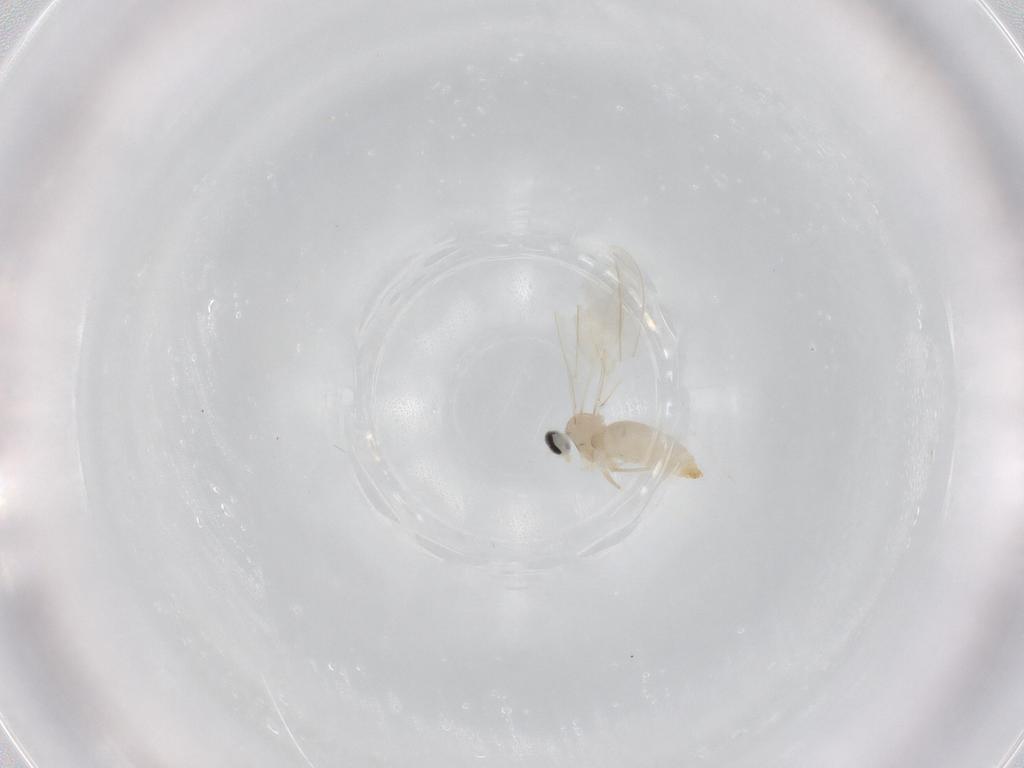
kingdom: Animalia
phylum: Arthropoda
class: Insecta
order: Diptera
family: Cecidomyiidae
